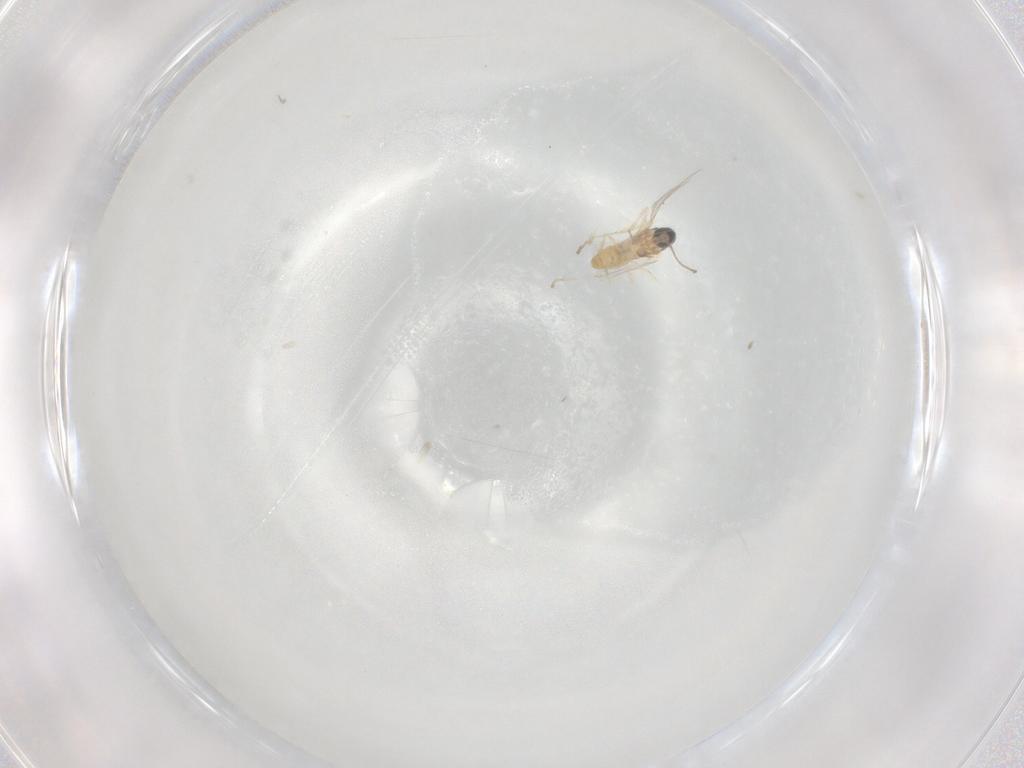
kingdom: Animalia
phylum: Arthropoda
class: Insecta
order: Diptera
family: Cecidomyiidae
